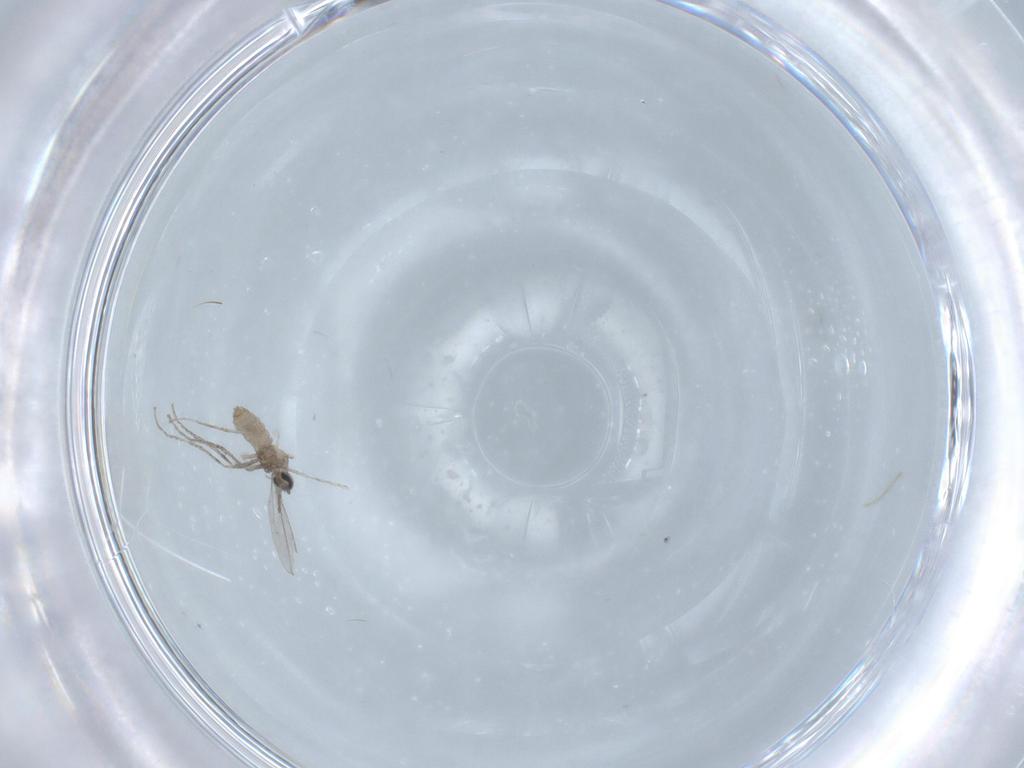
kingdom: Animalia
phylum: Arthropoda
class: Insecta
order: Diptera
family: Cecidomyiidae
